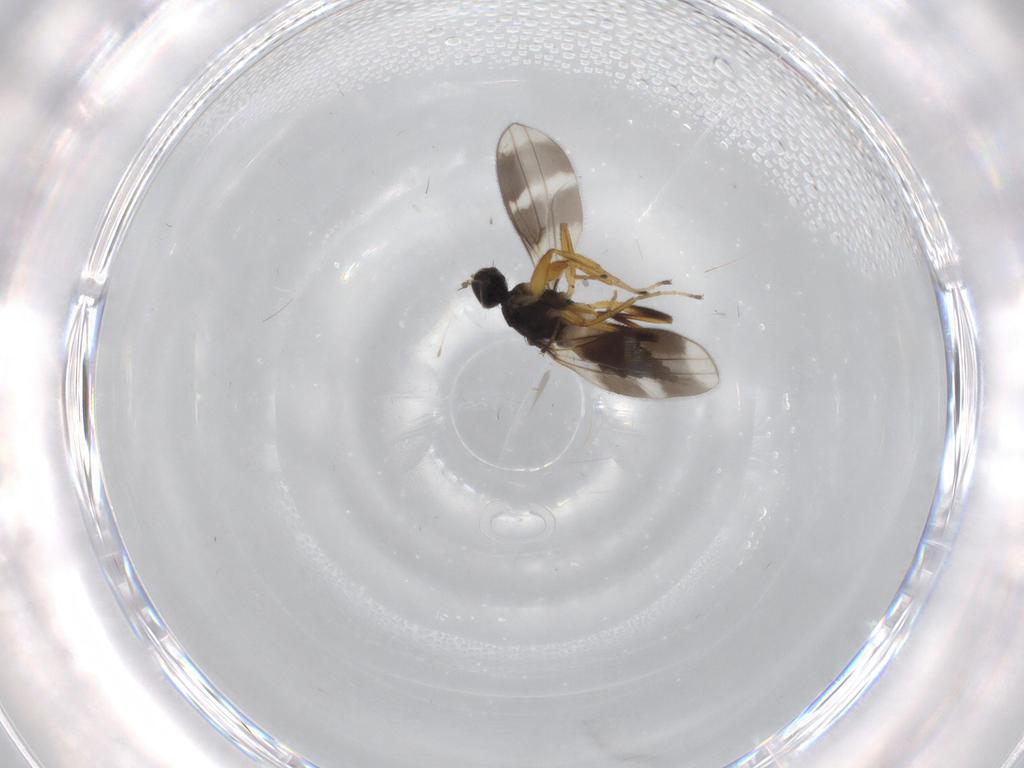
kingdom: Animalia
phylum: Arthropoda
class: Insecta
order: Diptera
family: Hybotidae
